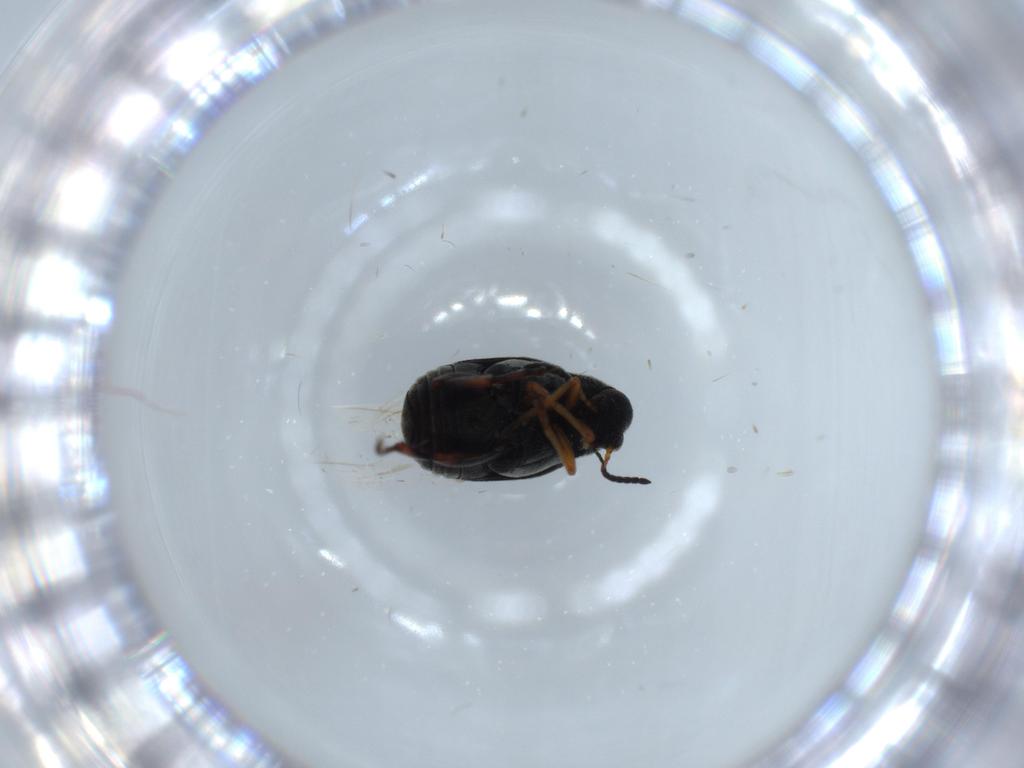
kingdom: Animalia
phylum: Arthropoda
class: Insecta
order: Coleoptera
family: Chrysomelidae
